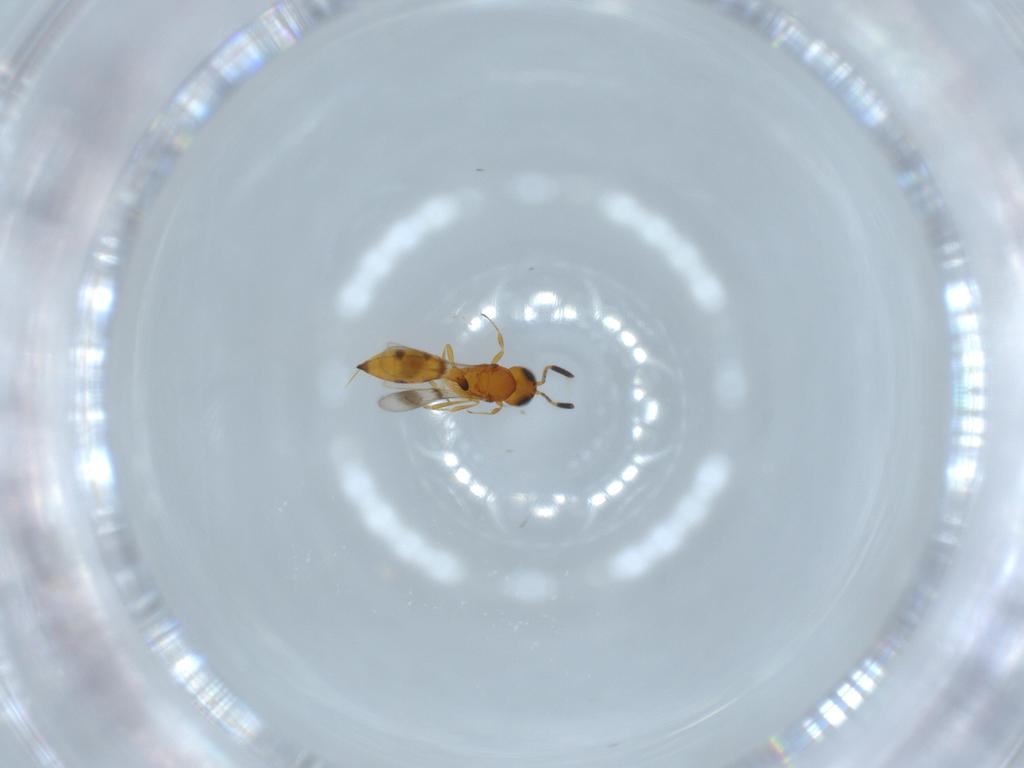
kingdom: Animalia
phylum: Arthropoda
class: Insecta
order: Hymenoptera
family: Scelionidae
